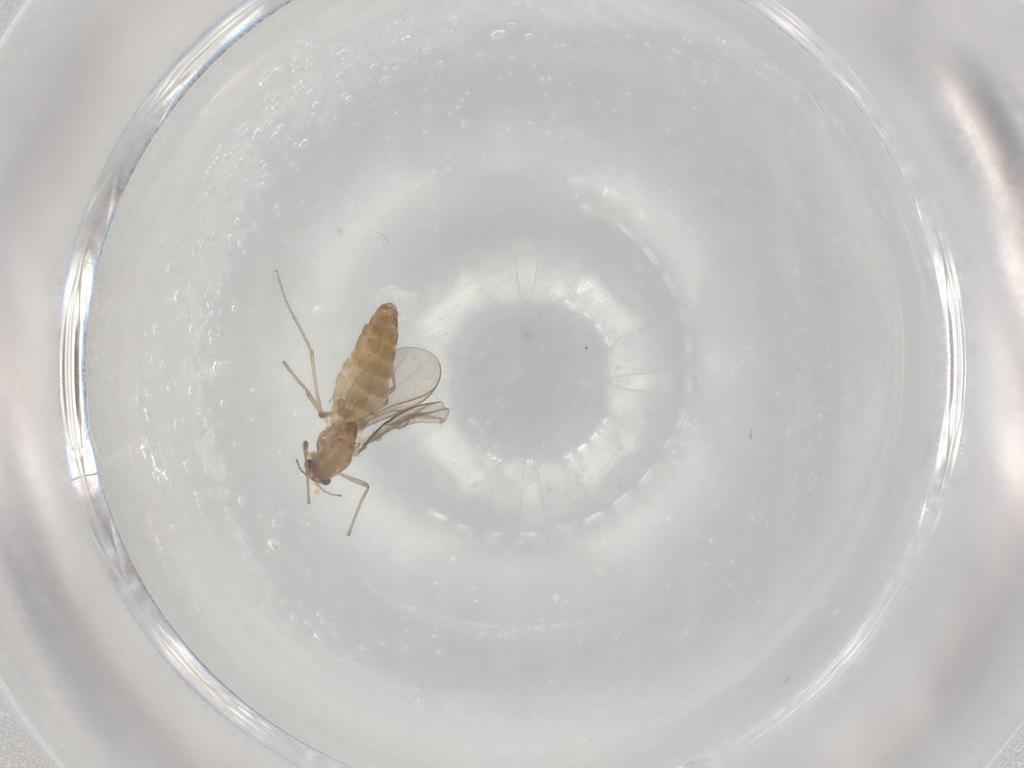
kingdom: Animalia
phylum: Arthropoda
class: Insecta
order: Diptera
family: Chironomidae
